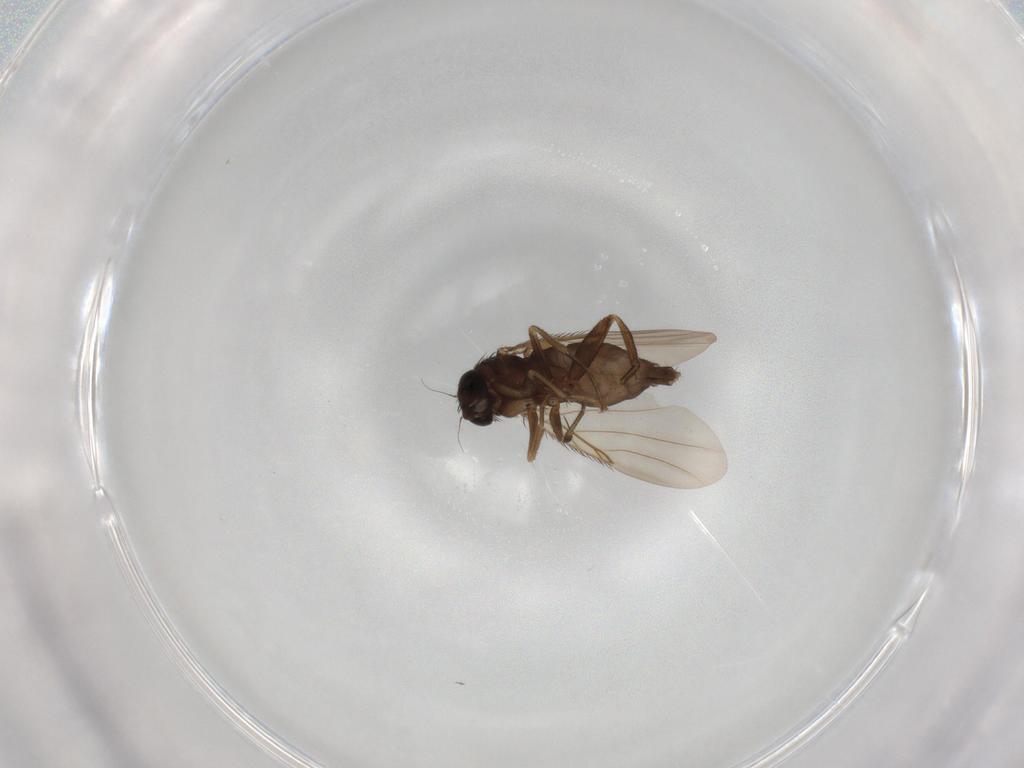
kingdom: Animalia
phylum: Arthropoda
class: Insecta
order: Diptera
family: Phoridae
